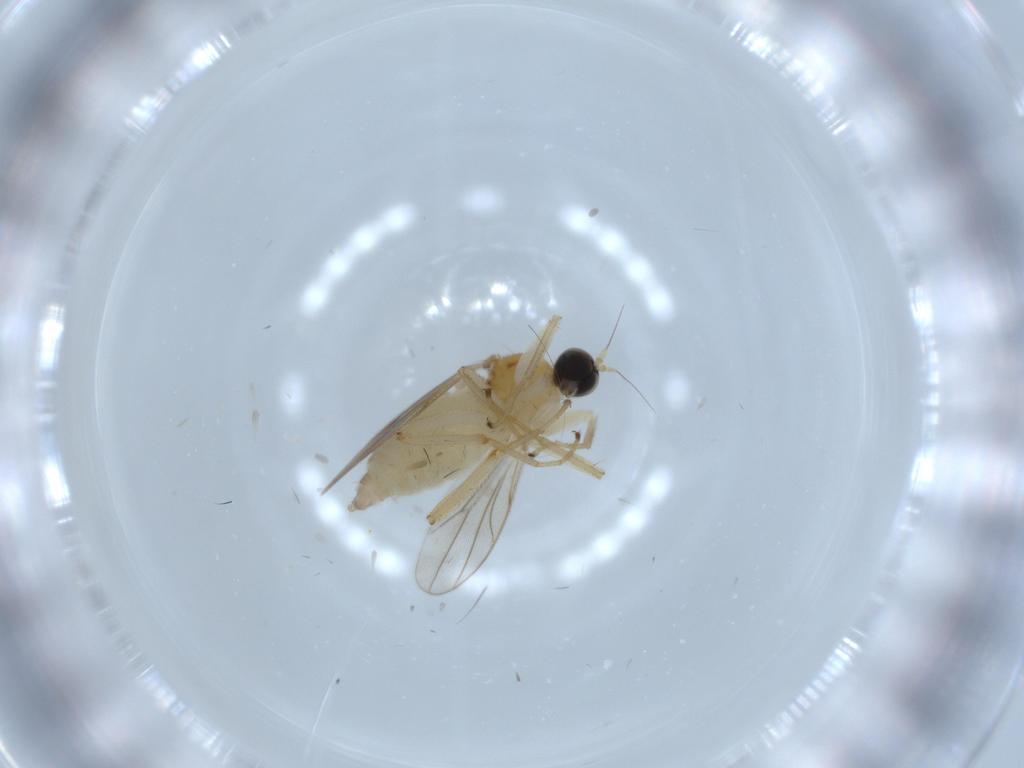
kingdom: Animalia
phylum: Arthropoda
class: Insecta
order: Diptera
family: Hybotidae
